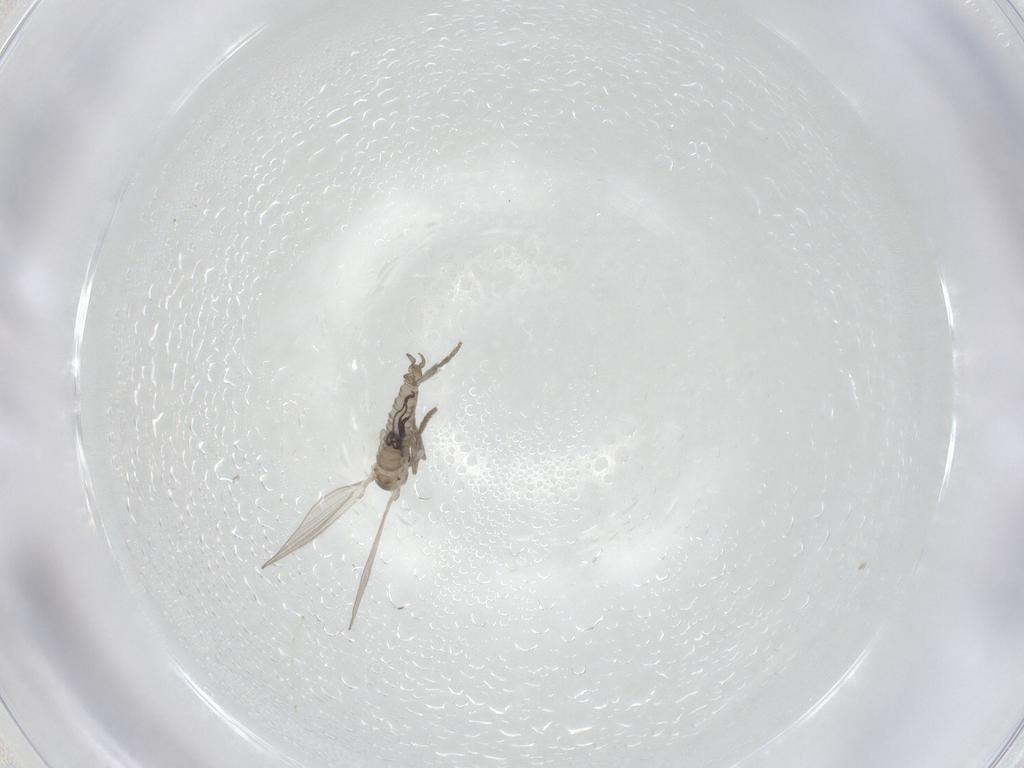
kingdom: Animalia
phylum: Arthropoda
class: Insecta
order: Diptera
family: Psychodidae
